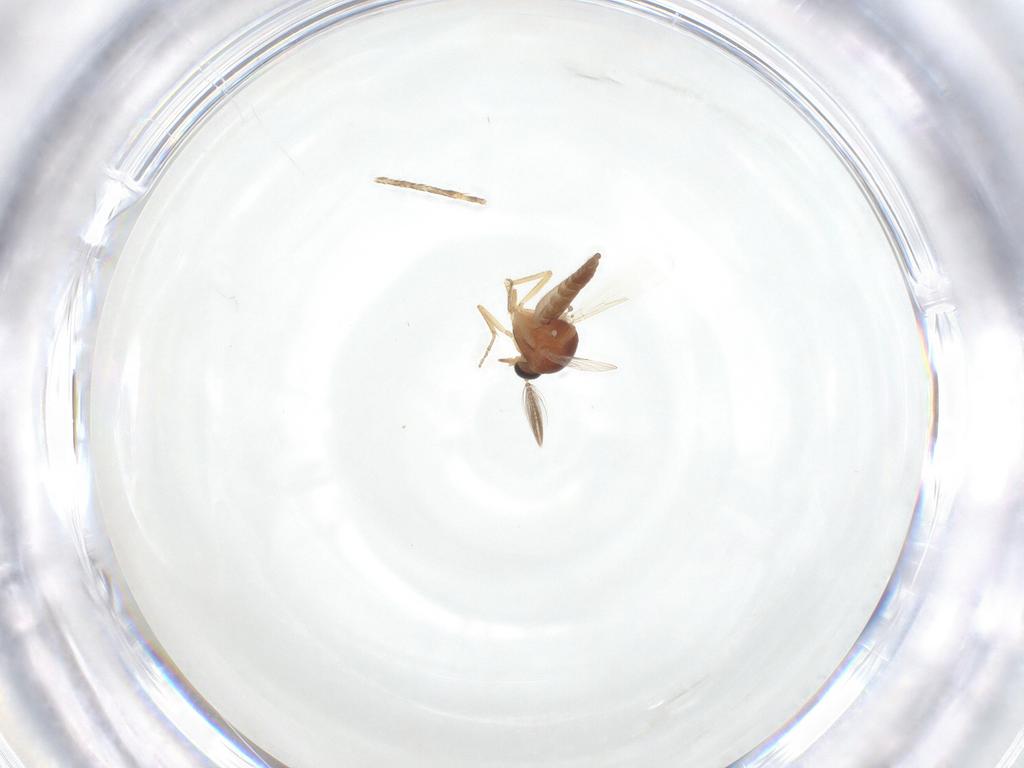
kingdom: Animalia
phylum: Arthropoda
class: Insecta
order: Diptera
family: Ceratopogonidae
